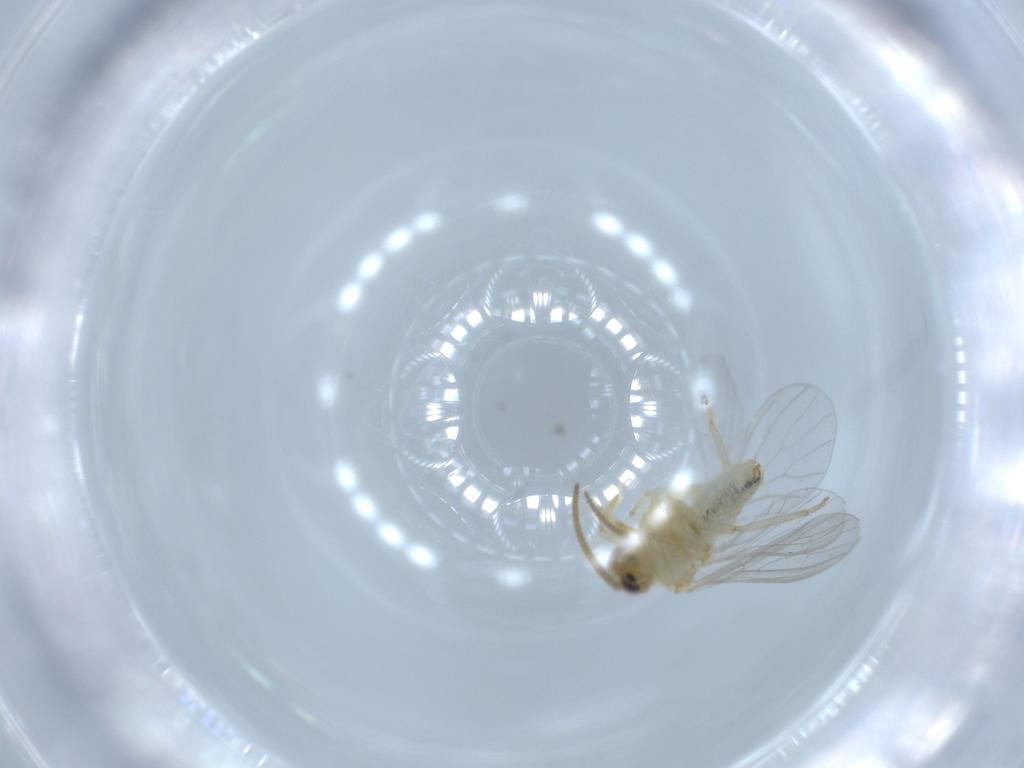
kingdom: Animalia
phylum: Arthropoda
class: Insecta
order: Neuroptera
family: Coniopterygidae
